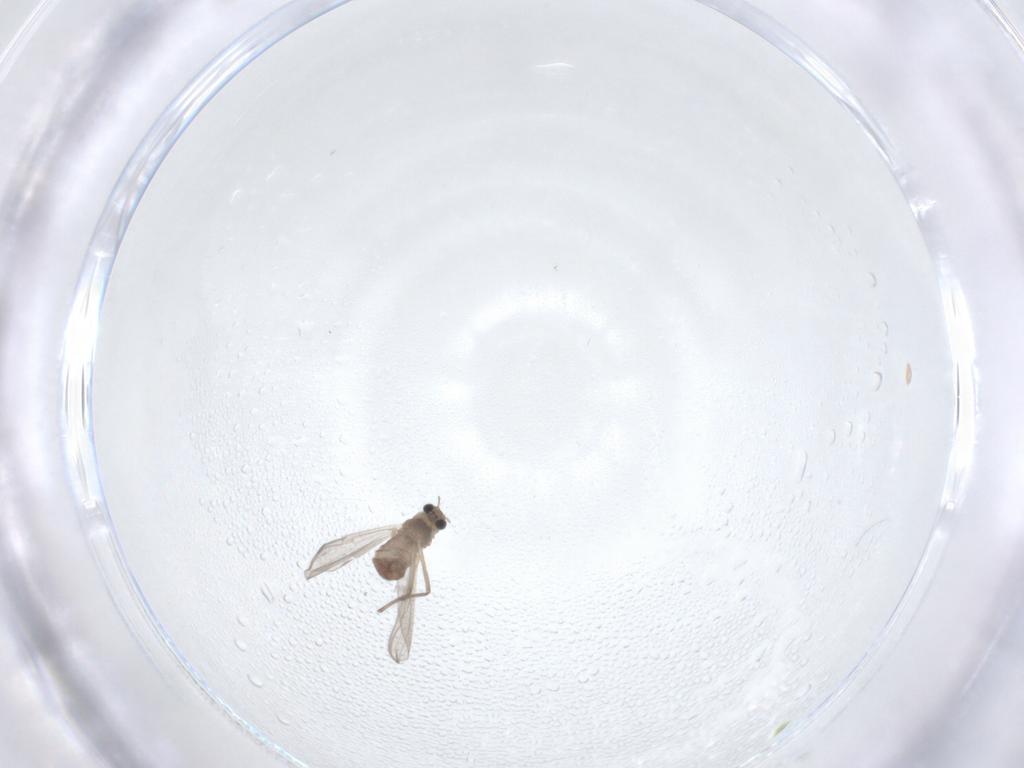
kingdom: Animalia
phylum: Arthropoda
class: Insecta
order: Diptera
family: Chironomidae
